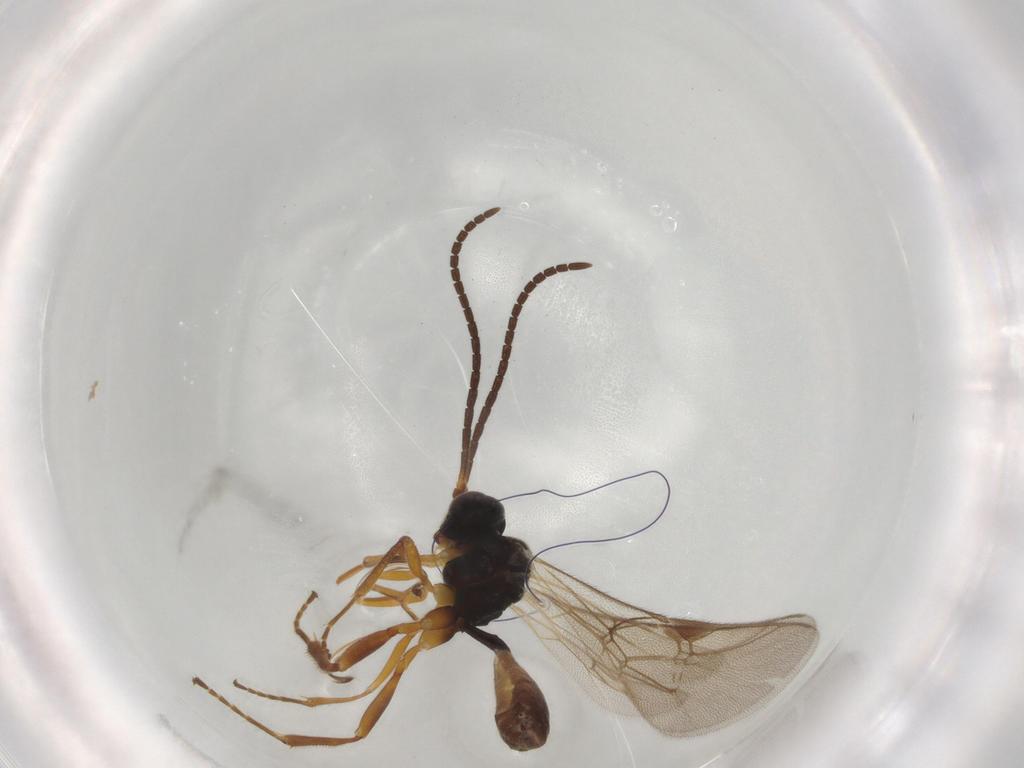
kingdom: Animalia
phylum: Arthropoda
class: Insecta
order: Hymenoptera
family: Ichneumonidae
